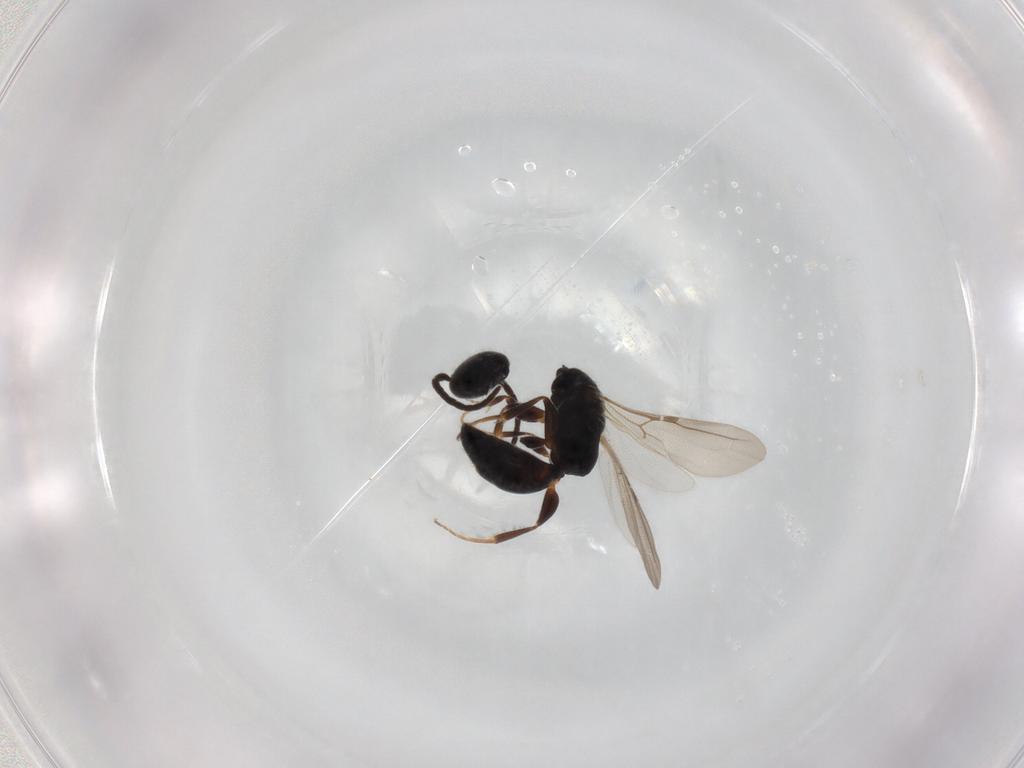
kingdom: Animalia
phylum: Arthropoda
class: Insecta
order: Hymenoptera
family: Bethylidae
